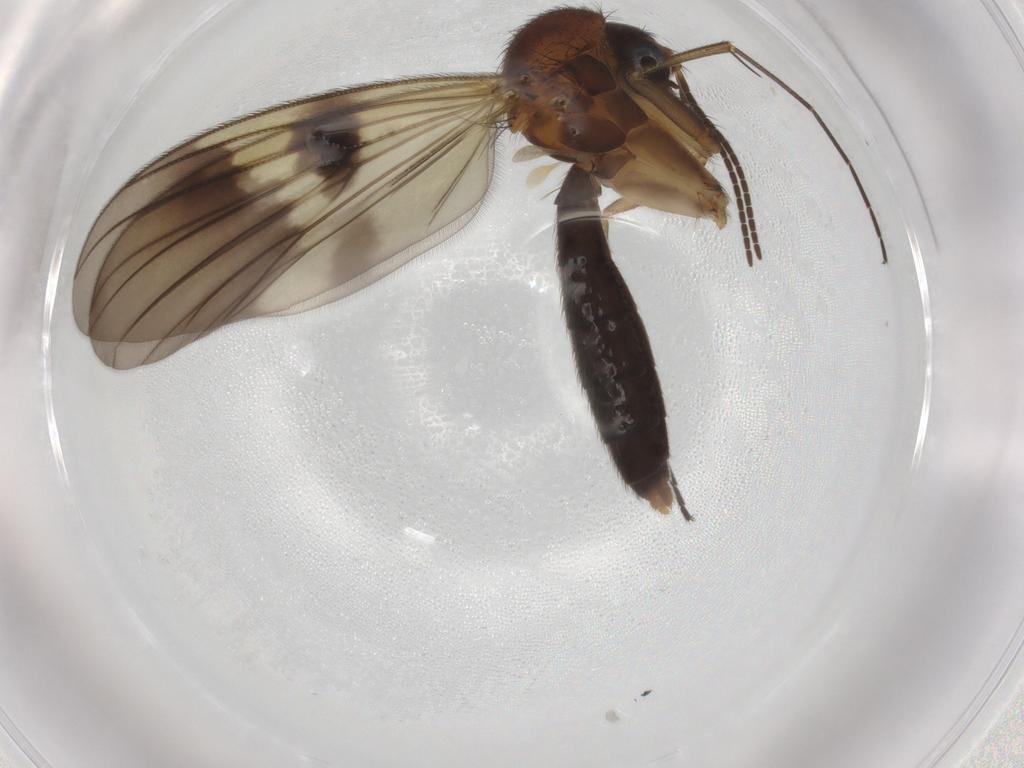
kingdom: Animalia
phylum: Arthropoda
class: Insecta
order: Diptera
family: Mycetophilidae
